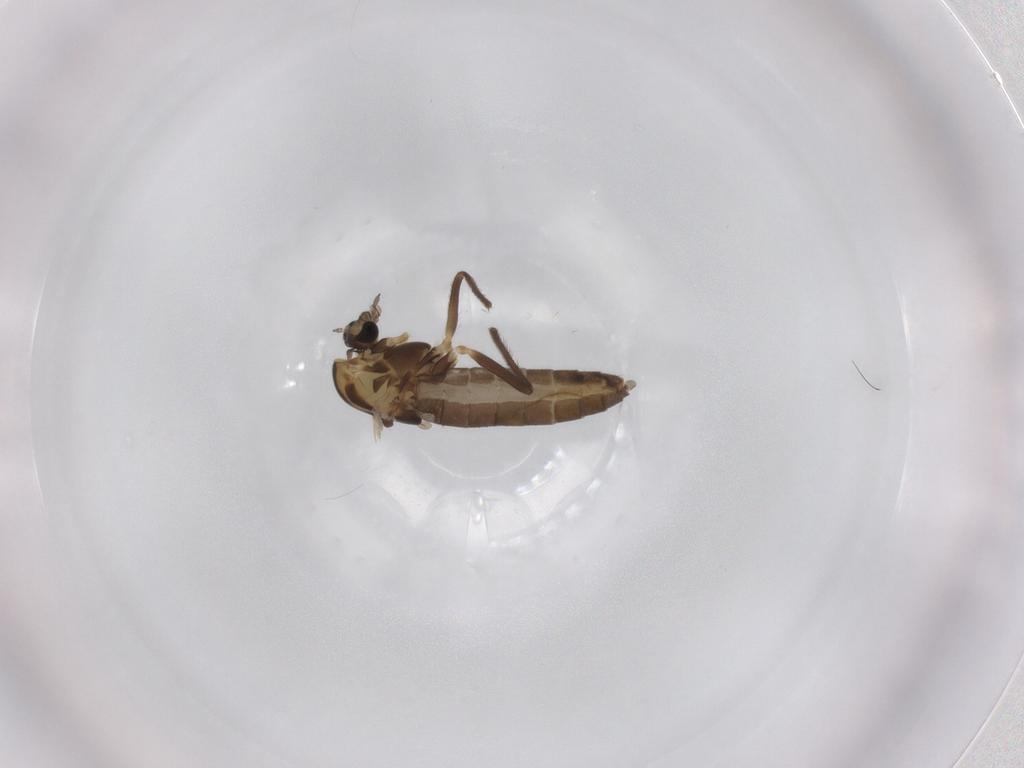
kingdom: Animalia
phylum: Arthropoda
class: Insecta
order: Diptera
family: Chironomidae
